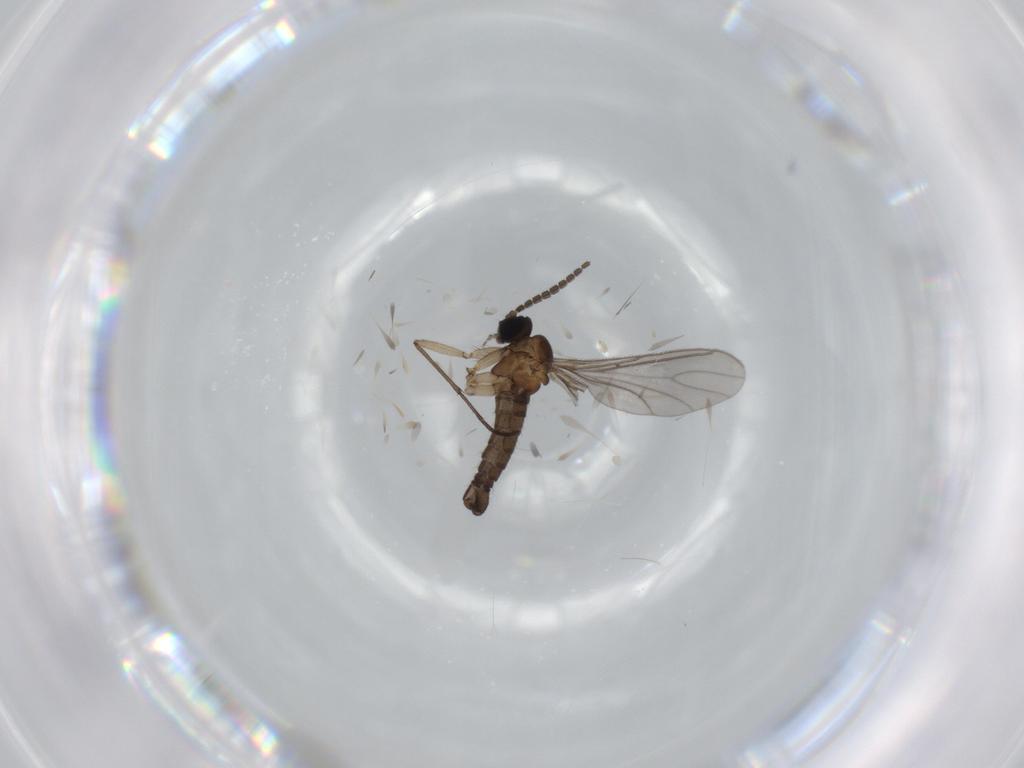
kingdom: Animalia
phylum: Arthropoda
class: Insecta
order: Diptera
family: Sciaridae
